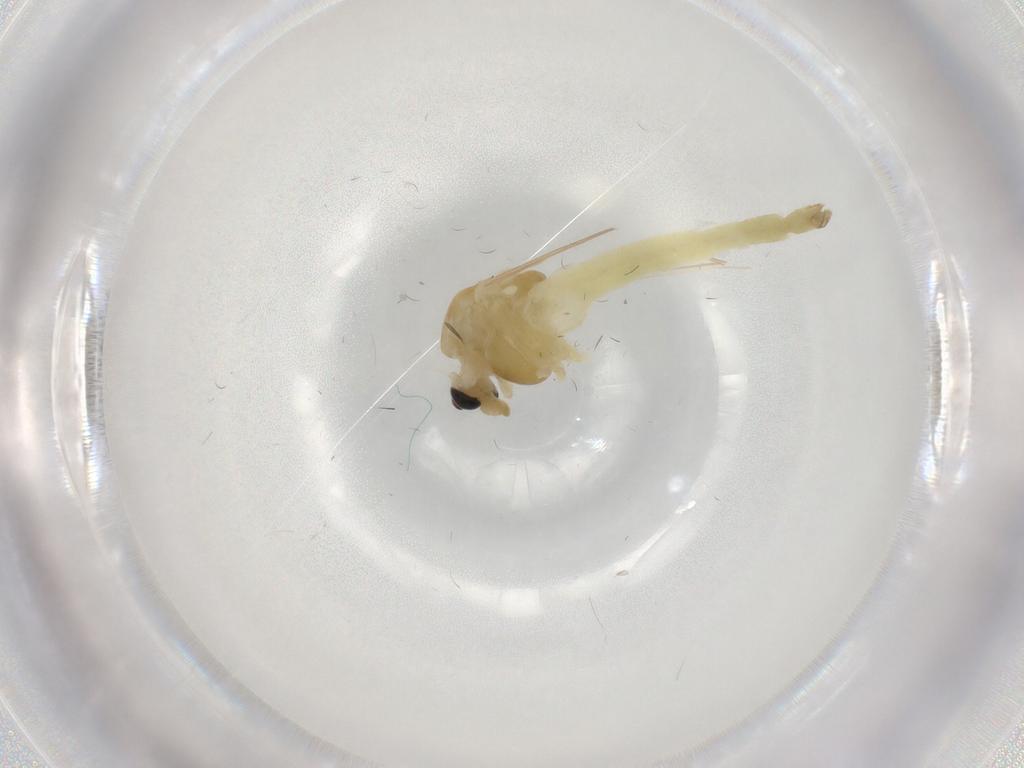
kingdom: Animalia
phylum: Arthropoda
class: Insecta
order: Diptera
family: Chironomidae
